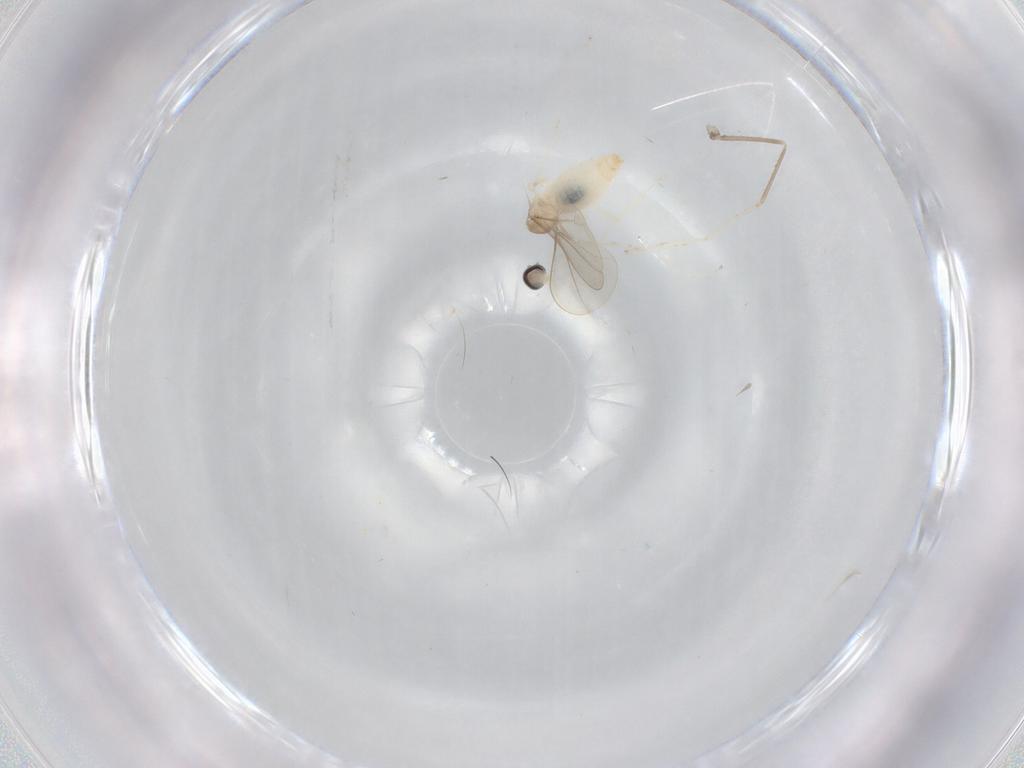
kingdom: Animalia
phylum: Arthropoda
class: Insecta
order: Diptera
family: Cecidomyiidae
